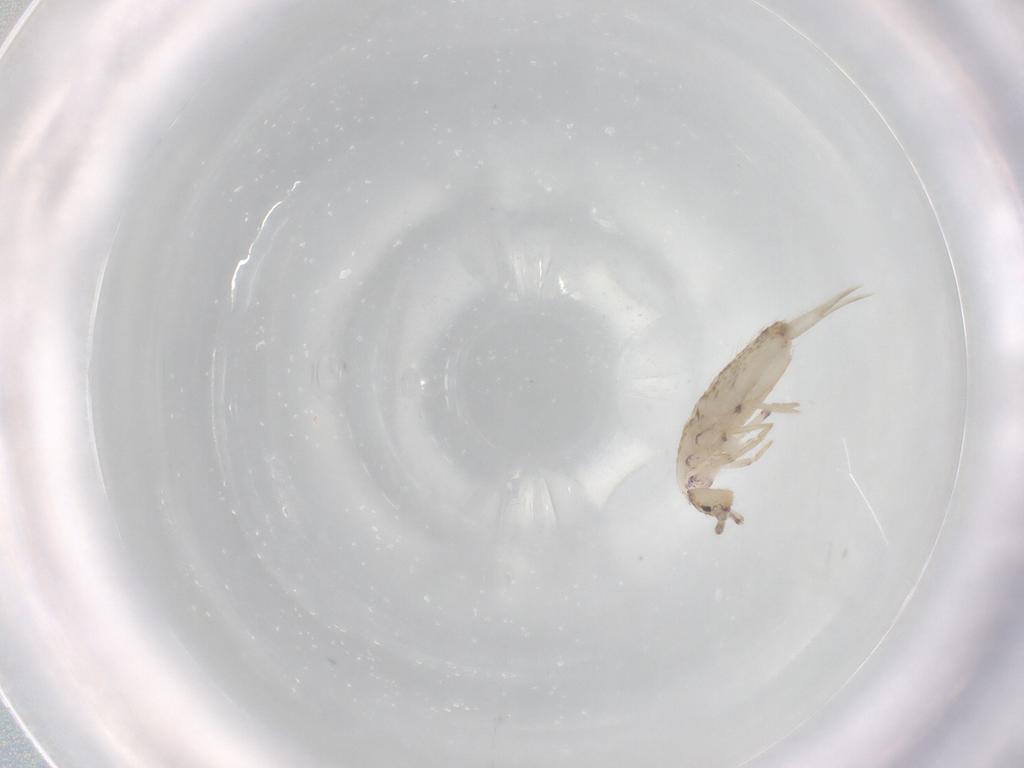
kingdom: Animalia
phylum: Arthropoda
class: Collembola
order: Entomobryomorpha
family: Entomobryidae
